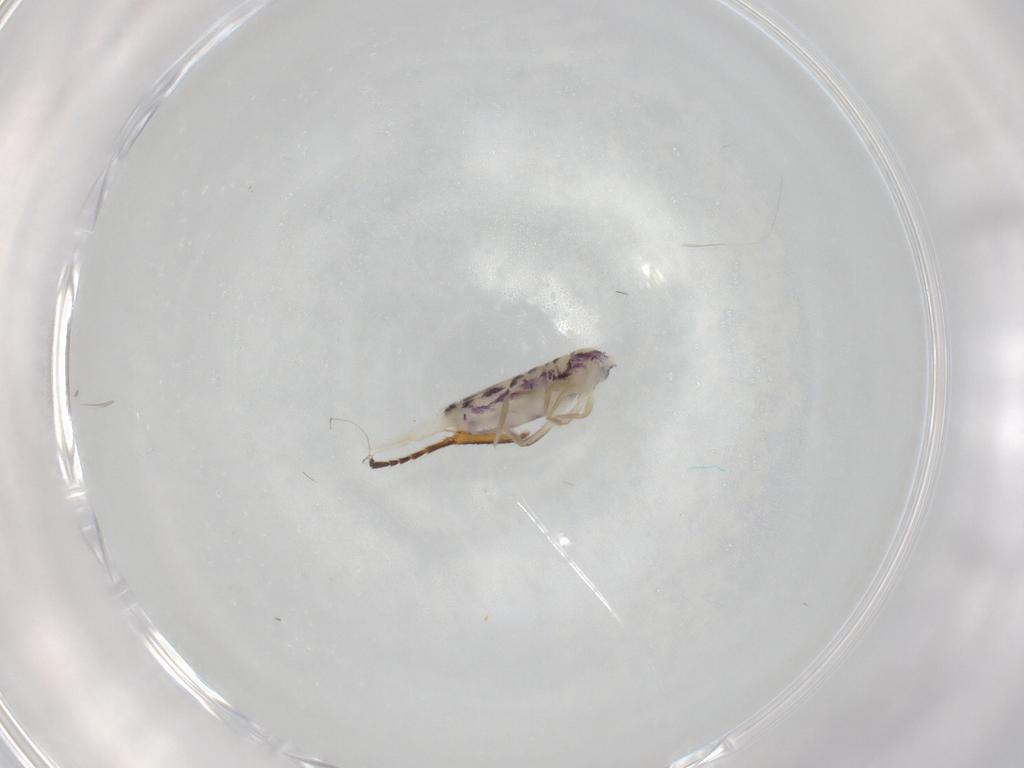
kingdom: Animalia
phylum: Arthropoda
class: Collembola
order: Entomobryomorpha
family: Entomobryidae
